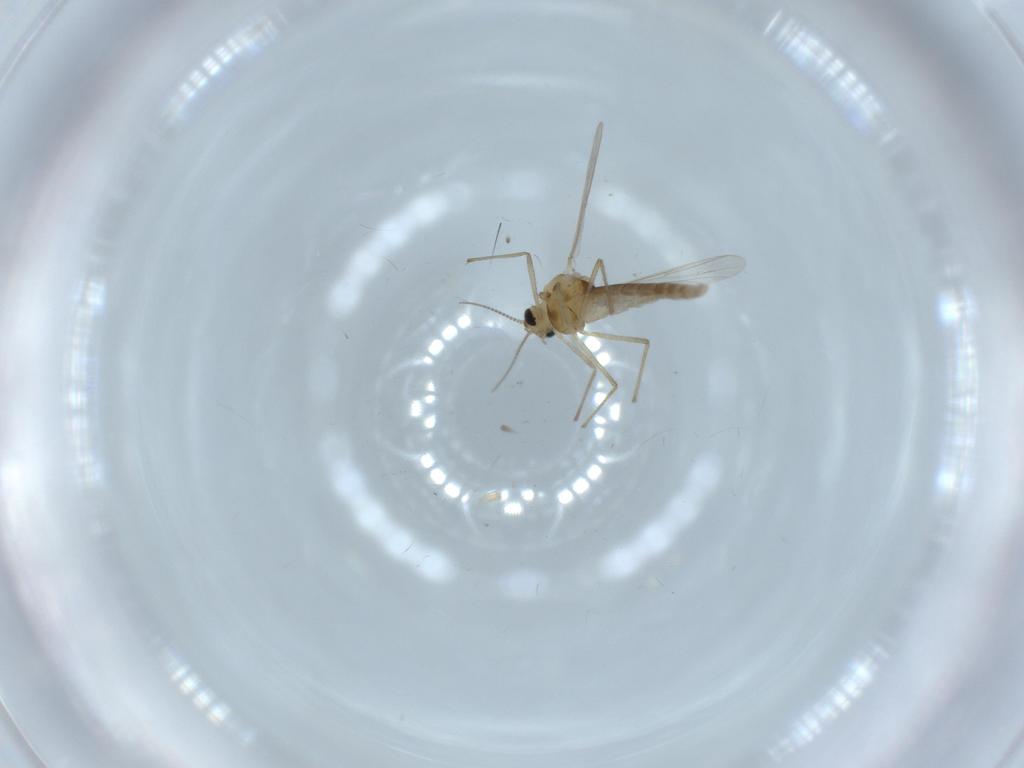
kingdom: Animalia
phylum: Arthropoda
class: Insecta
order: Diptera
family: Chironomidae
